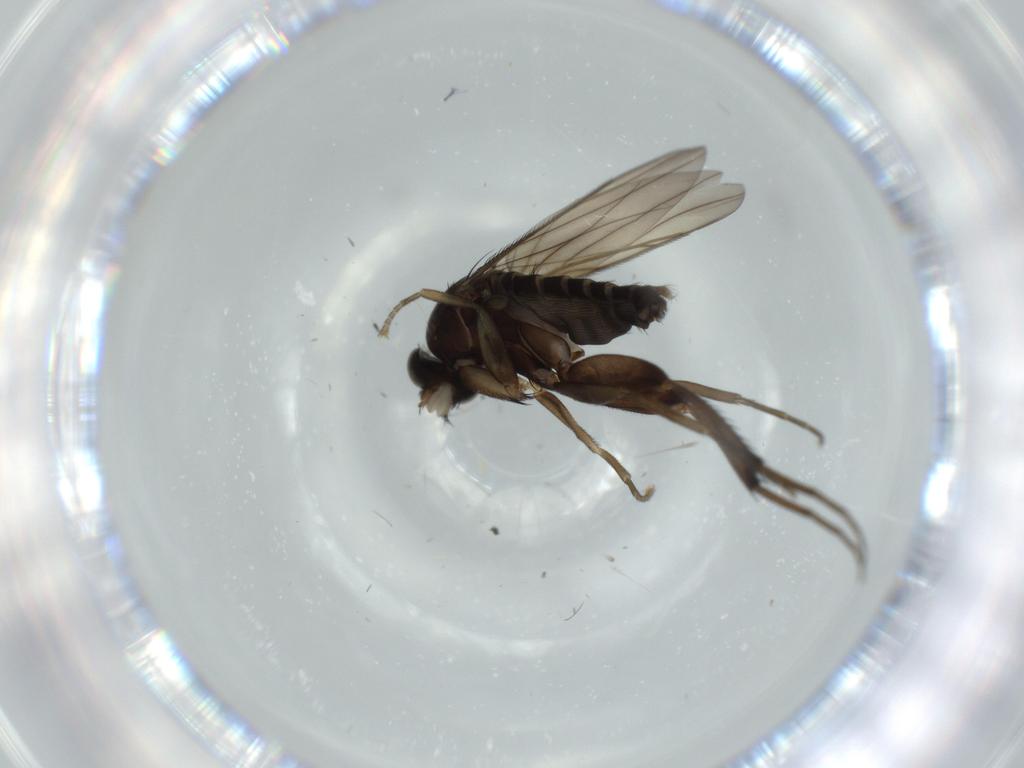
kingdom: Animalia
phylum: Arthropoda
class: Insecta
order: Diptera
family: Phoridae
